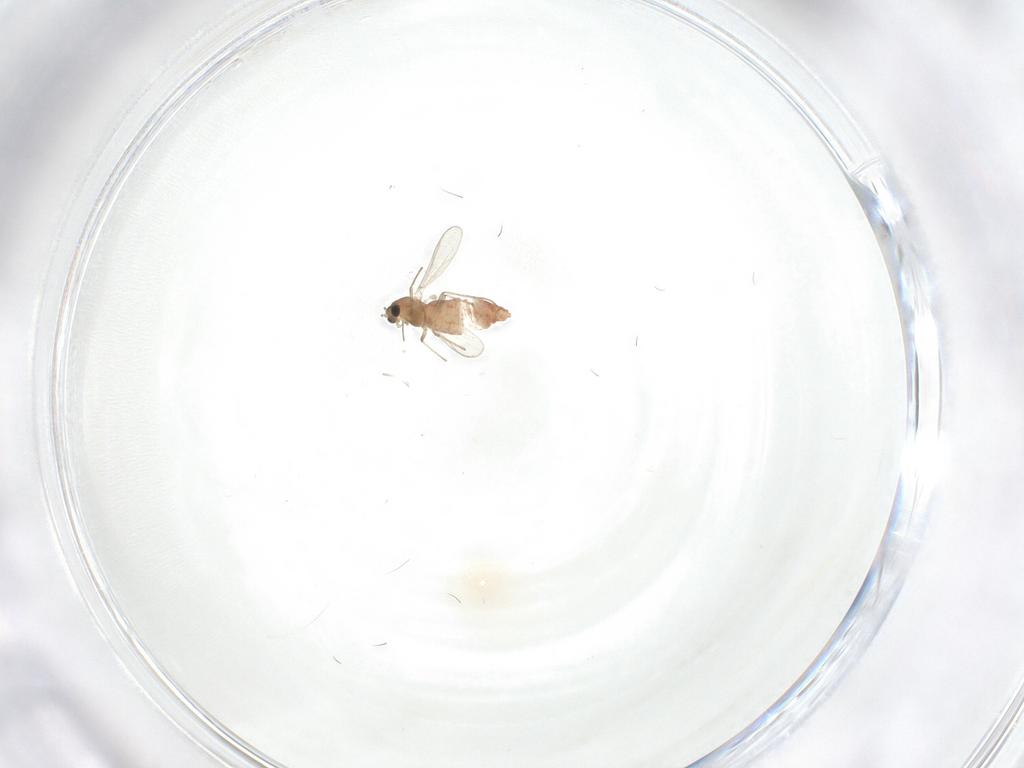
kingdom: Animalia
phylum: Arthropoda
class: Insecta
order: Diptera
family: Chironomidae
